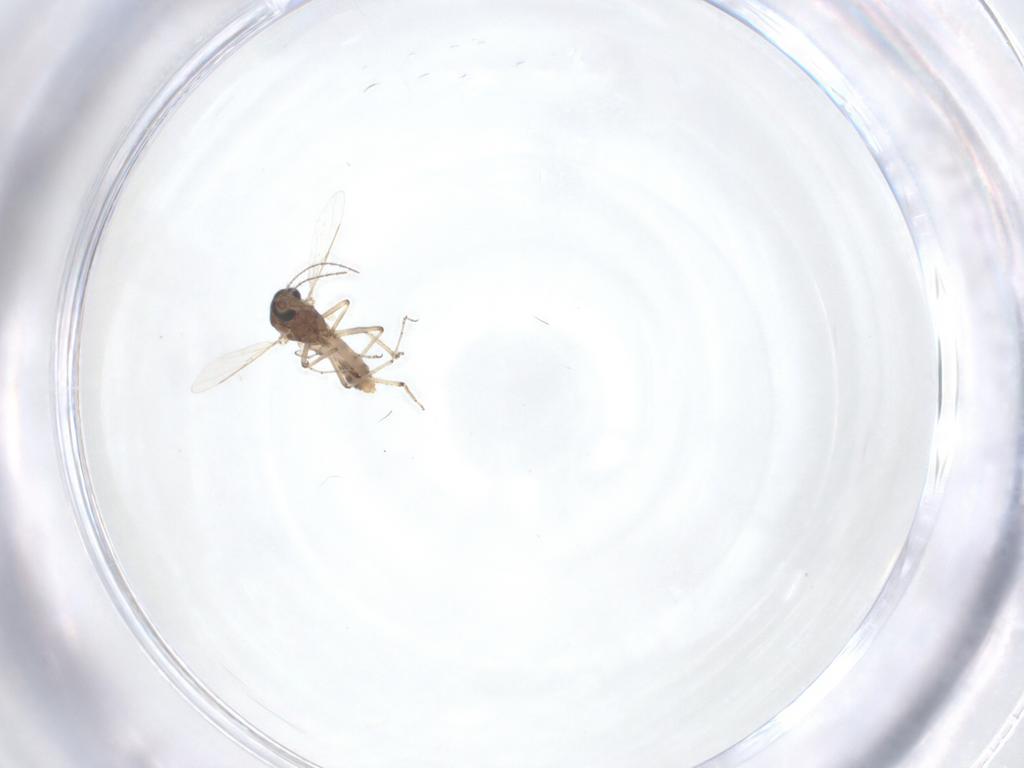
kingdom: Animalia
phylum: Arthropoda
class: Insecta
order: Diptera
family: Ceratopogonidae
